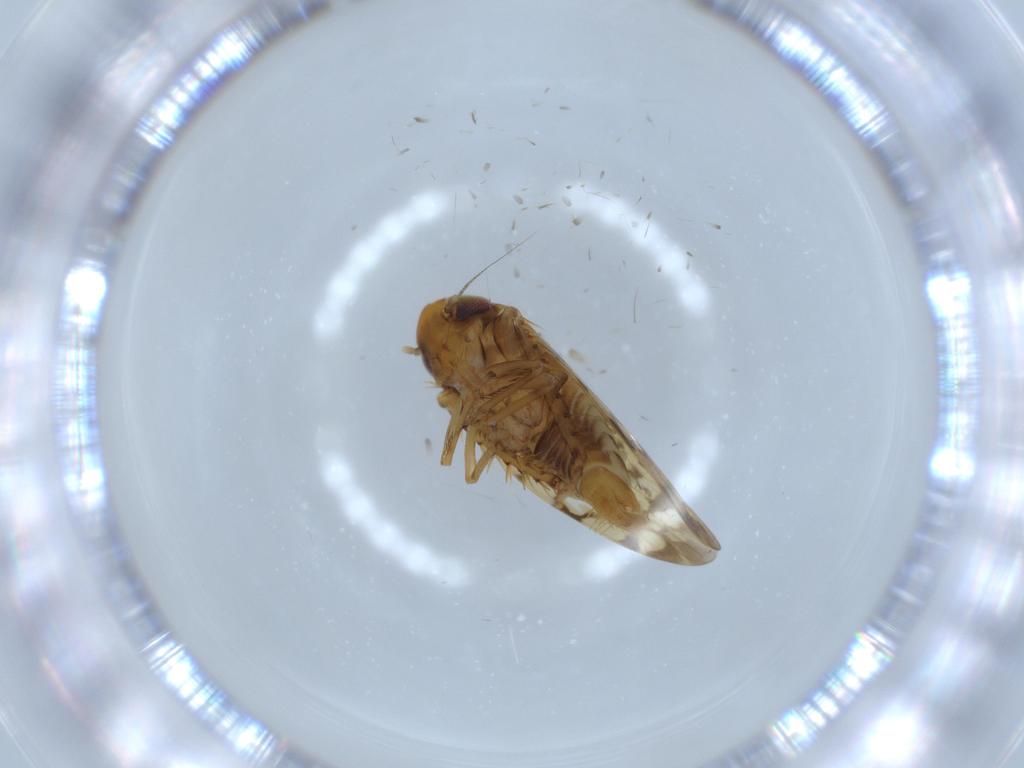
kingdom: Animalia
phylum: Arthropoda
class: Insecta
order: Hemiptera
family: Cicadellidae
